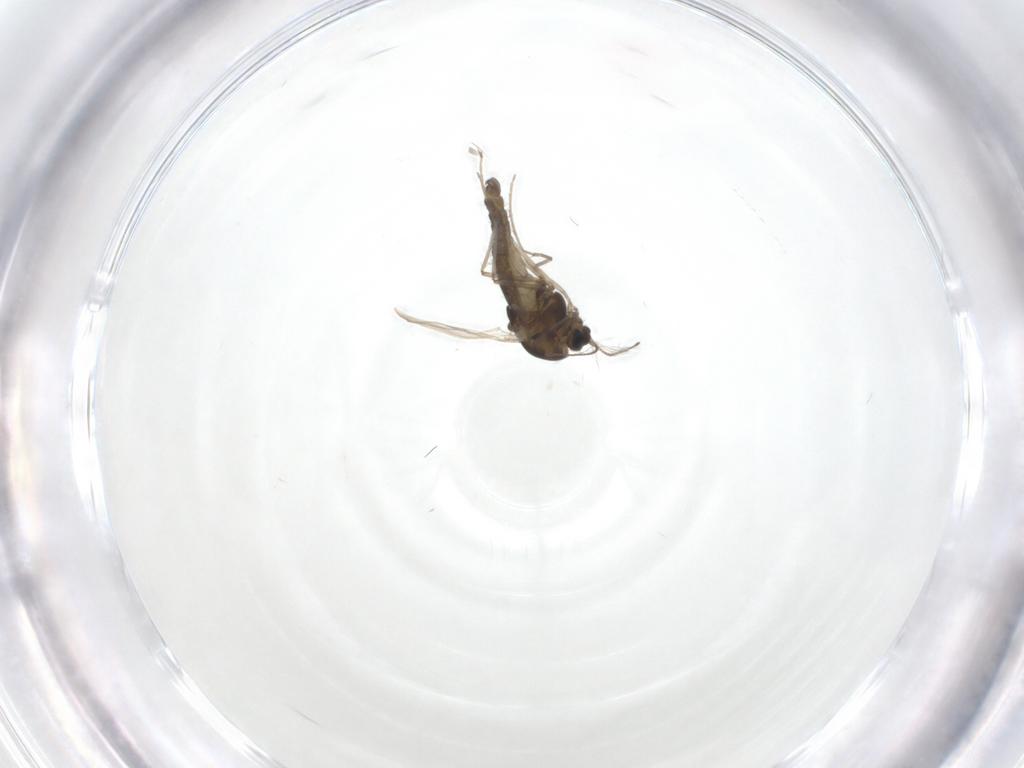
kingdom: Animalia
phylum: Arthropoda
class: Insecta
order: Diptera
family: Chironomidae
